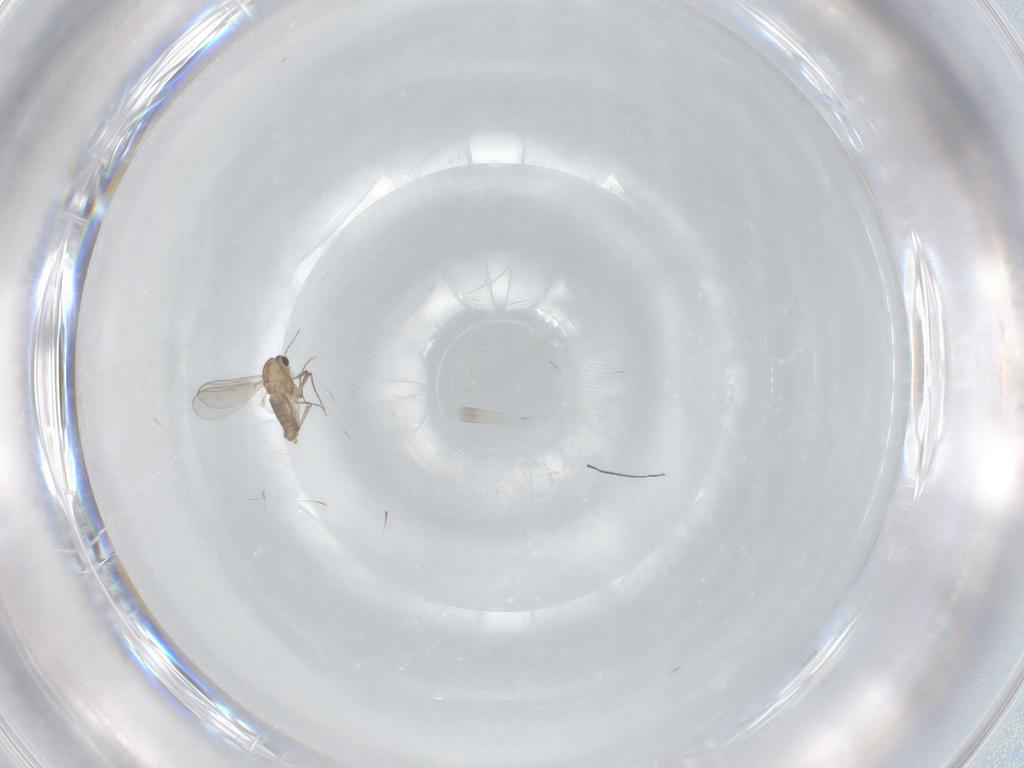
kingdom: Animalia
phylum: Arthropoda
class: Insecta
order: Diptera
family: Chironomidae
